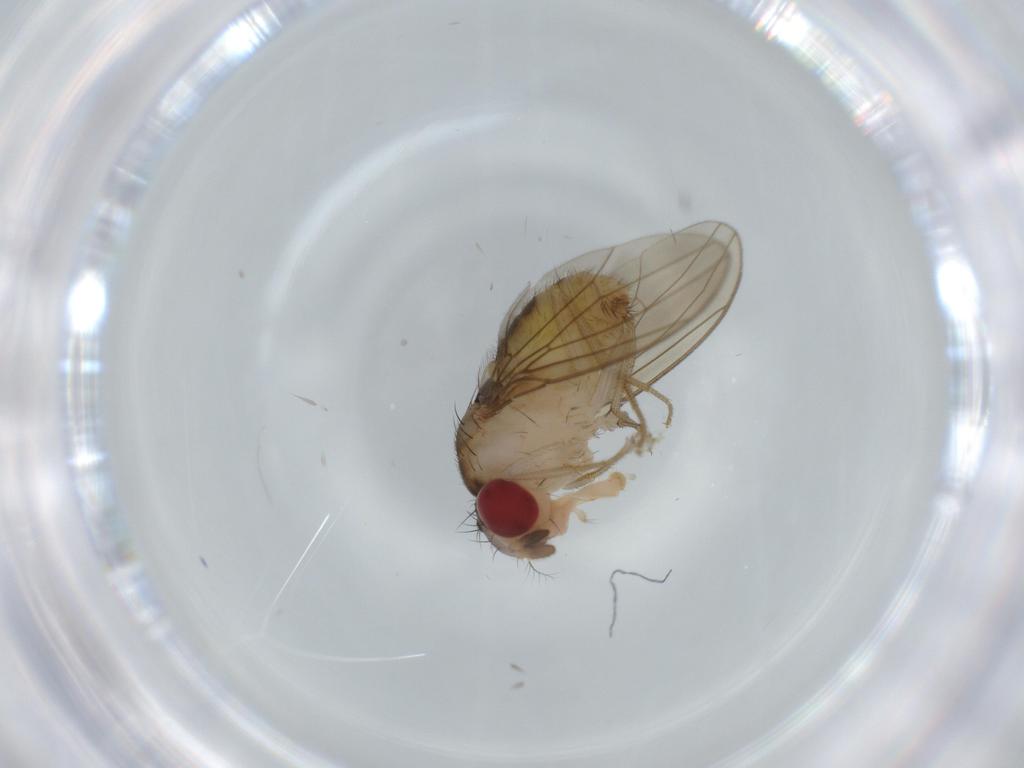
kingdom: Animalia
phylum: Arthropoda
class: Insecta
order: Diptera
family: Drosophilidae
